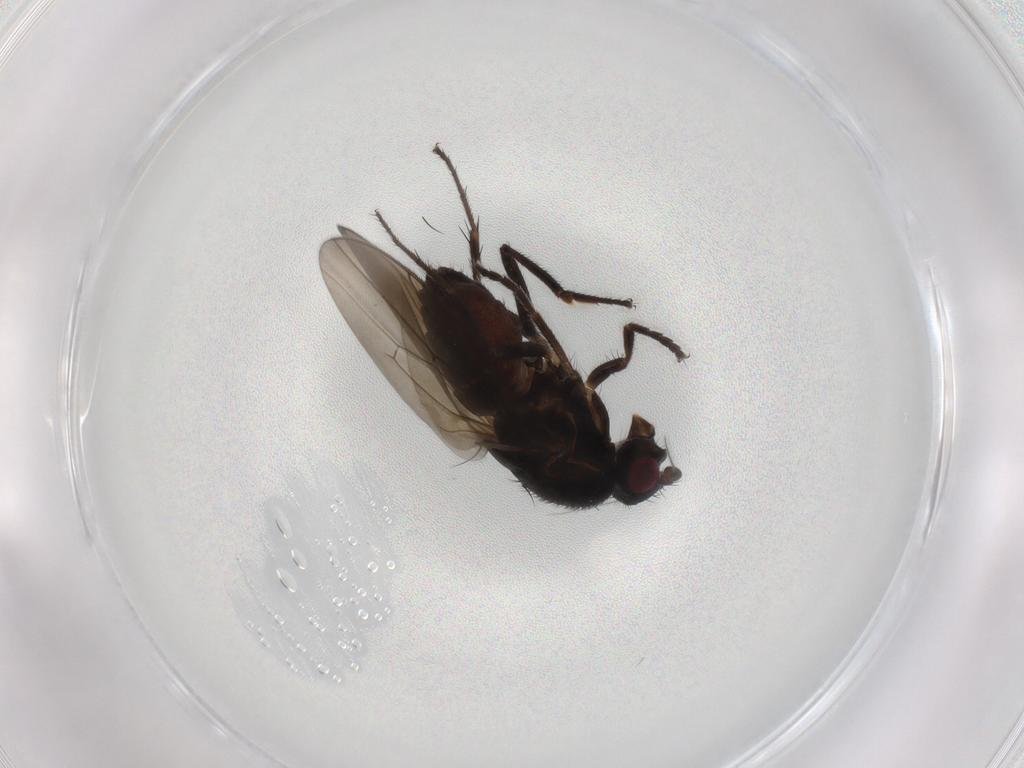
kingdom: Animalia
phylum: Arthropoda
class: Insecta
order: Diptera
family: Sphaeroceridae
